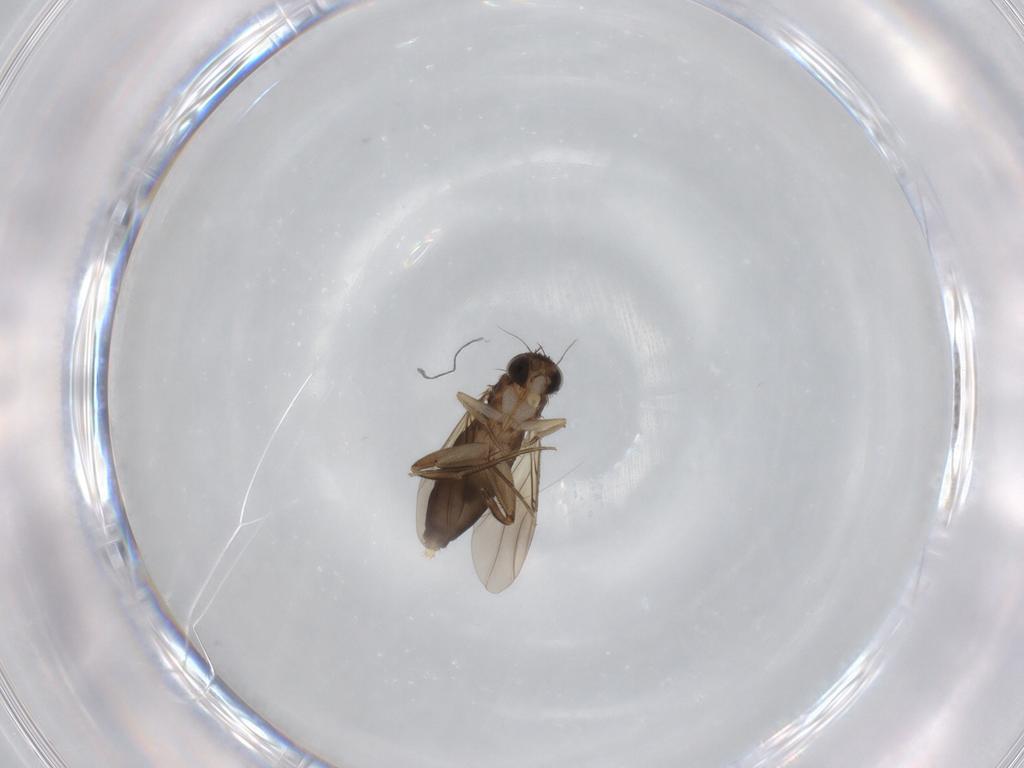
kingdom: Animalia
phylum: Arthropoda
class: Insecta
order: Diptera
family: Phoridae
